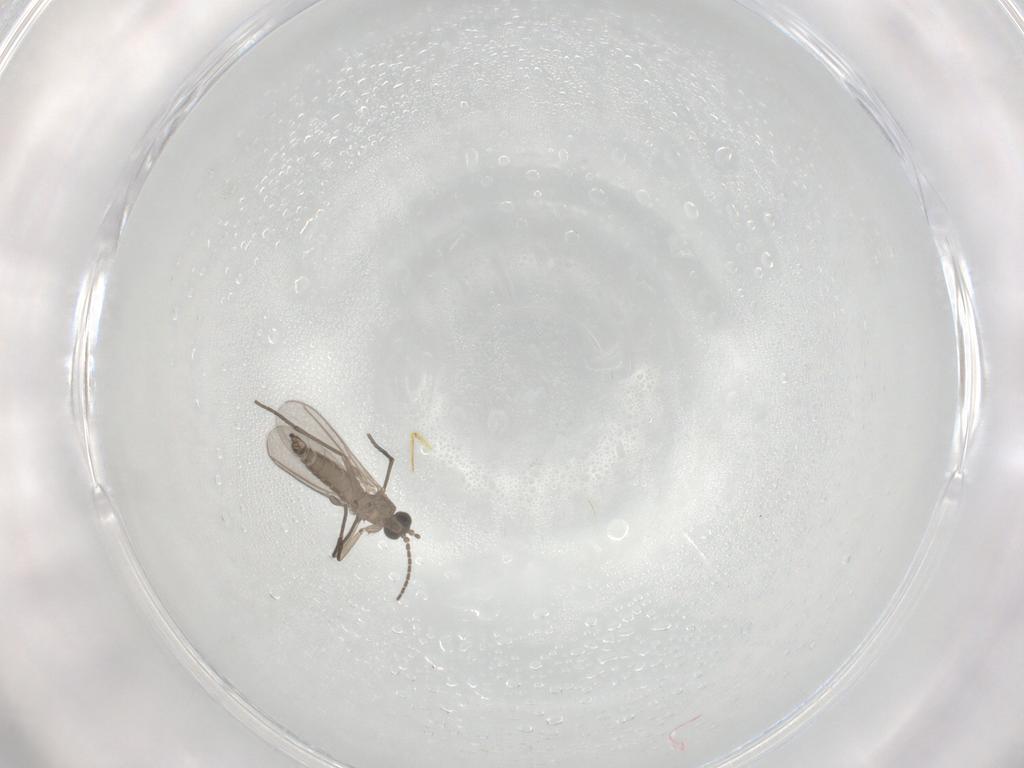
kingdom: Animalia
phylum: Arthropoda
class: Insecta
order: Diptera
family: Sciaridae
